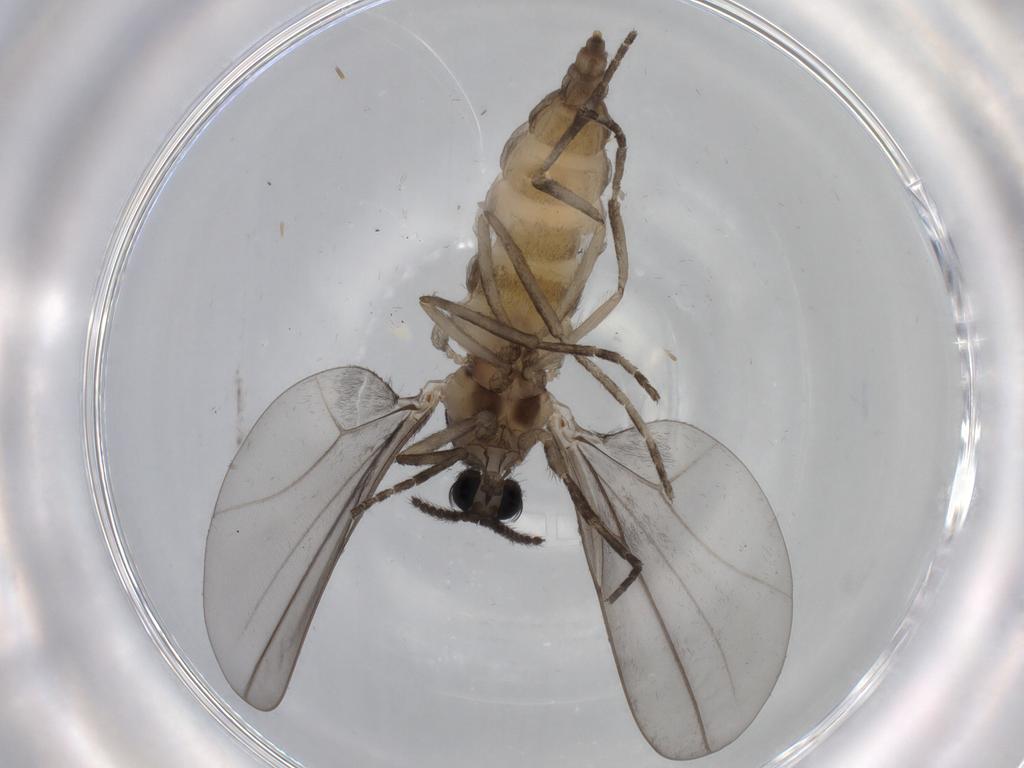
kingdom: Animalia
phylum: Arthropoda
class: Insecta
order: Diptera
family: Cecidomyiidae
